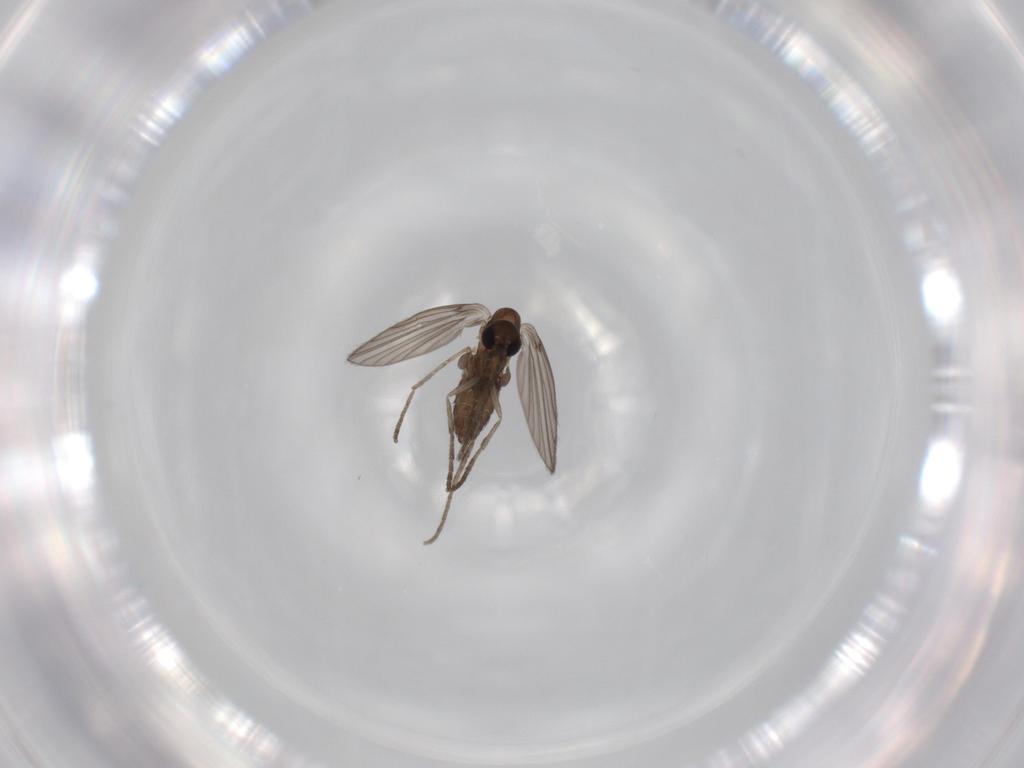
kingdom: Animalia
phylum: Arthropoda
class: Insecta
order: Diptera
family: Psychodidae
